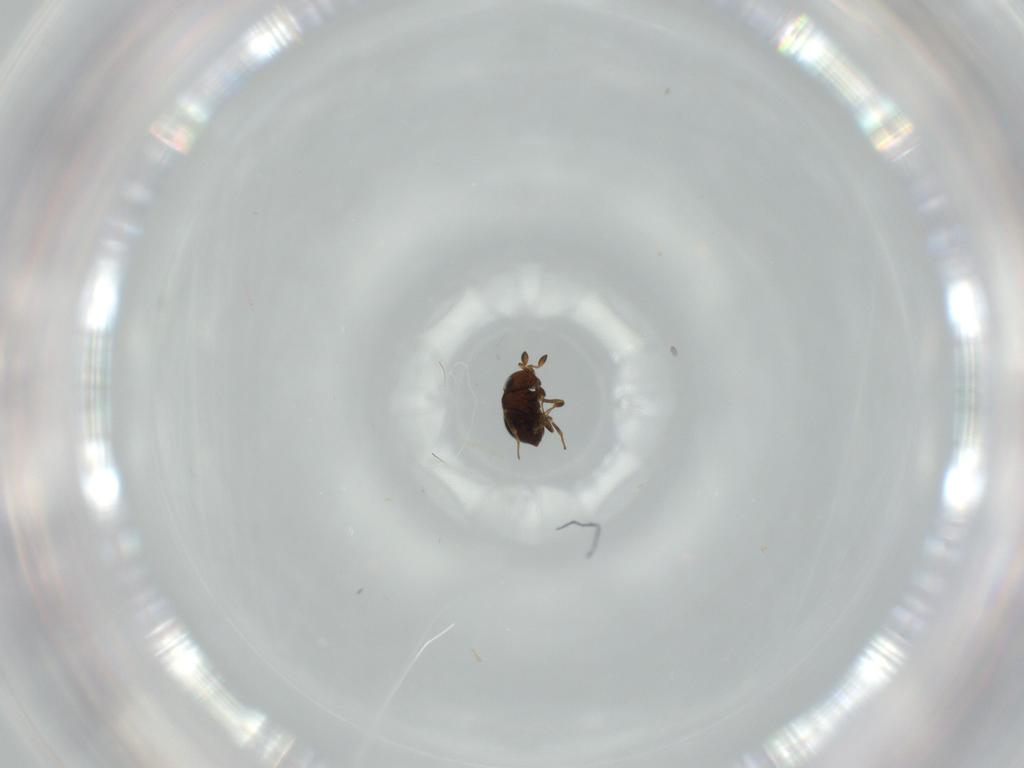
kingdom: Animalia
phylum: Arthropoda
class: Insecta
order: Hymenoptera
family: Scelionidae
